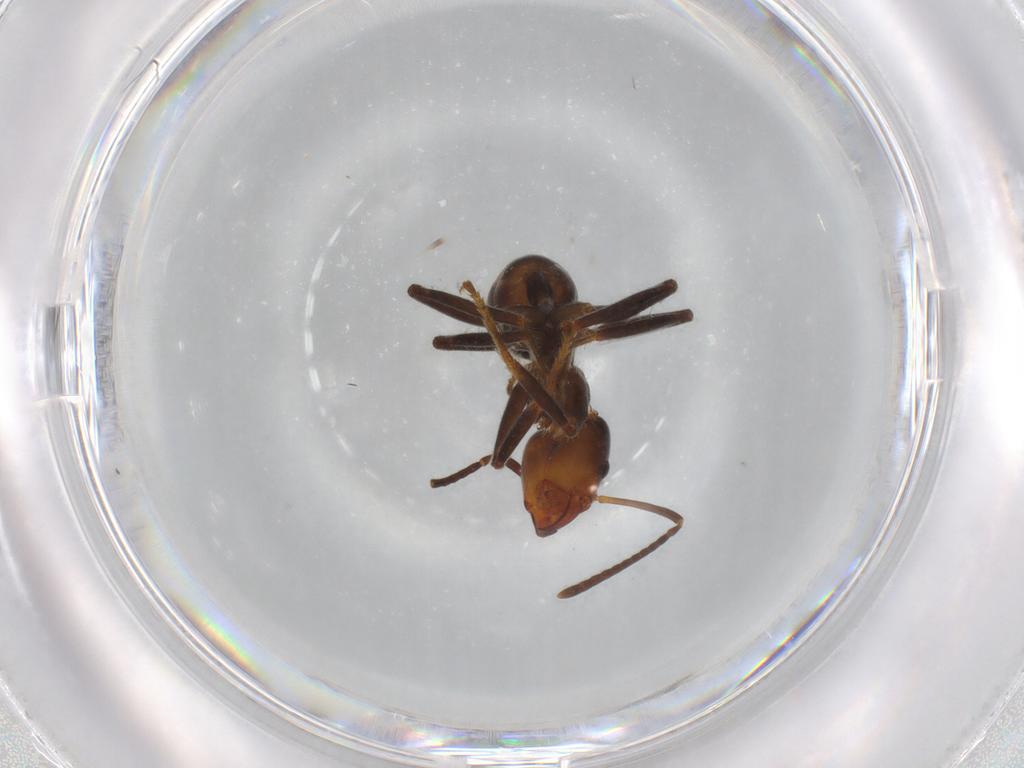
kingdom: Animalia
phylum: Arthropoda
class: Insecta
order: Hymenoptera
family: Formicidae
